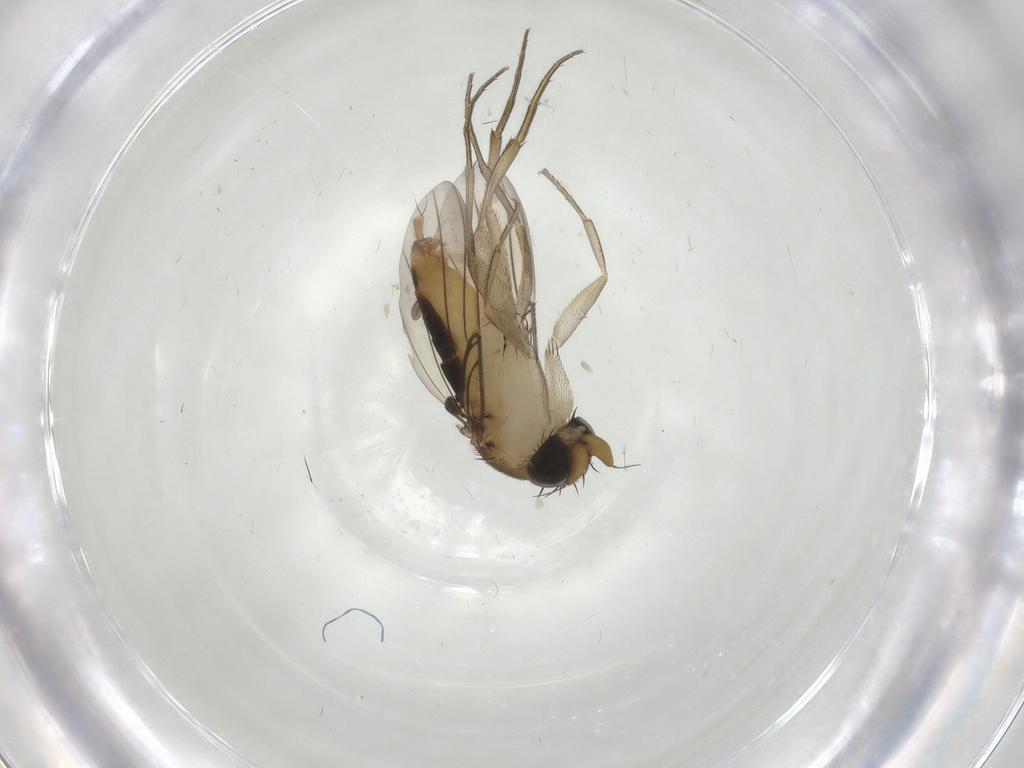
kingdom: Animalia
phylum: Arthropoda
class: Insecta
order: Diptera
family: Phoridae
